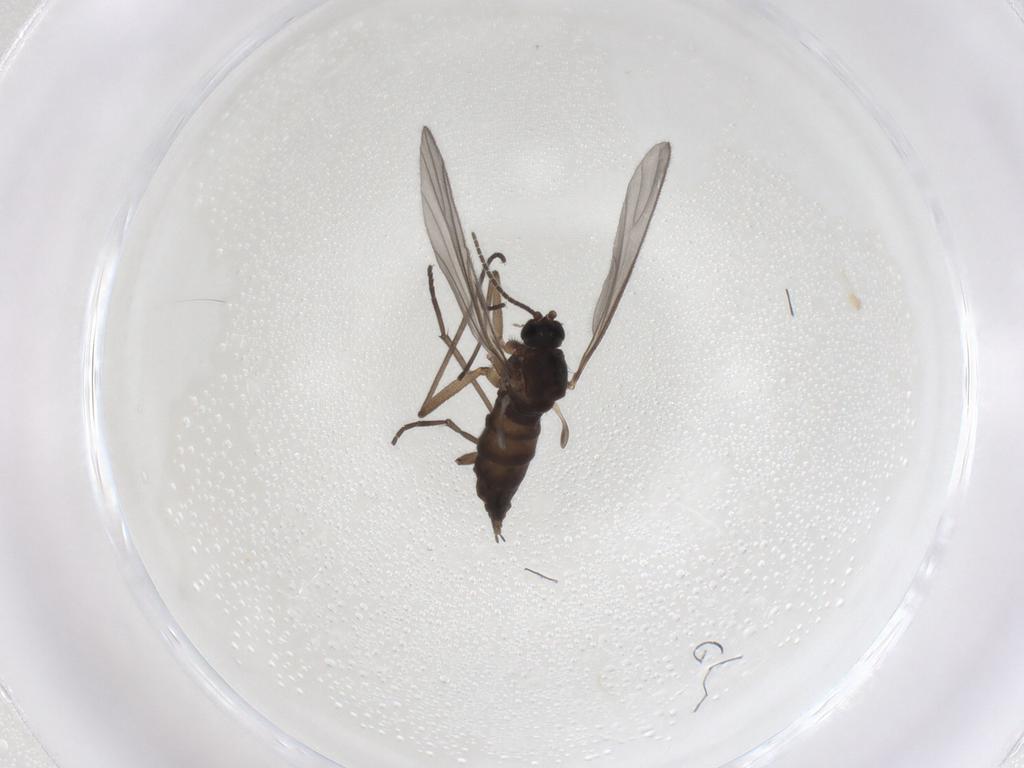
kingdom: Animalia
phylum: Arthropoda
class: Insecta
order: Diptera
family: Sciaridae
